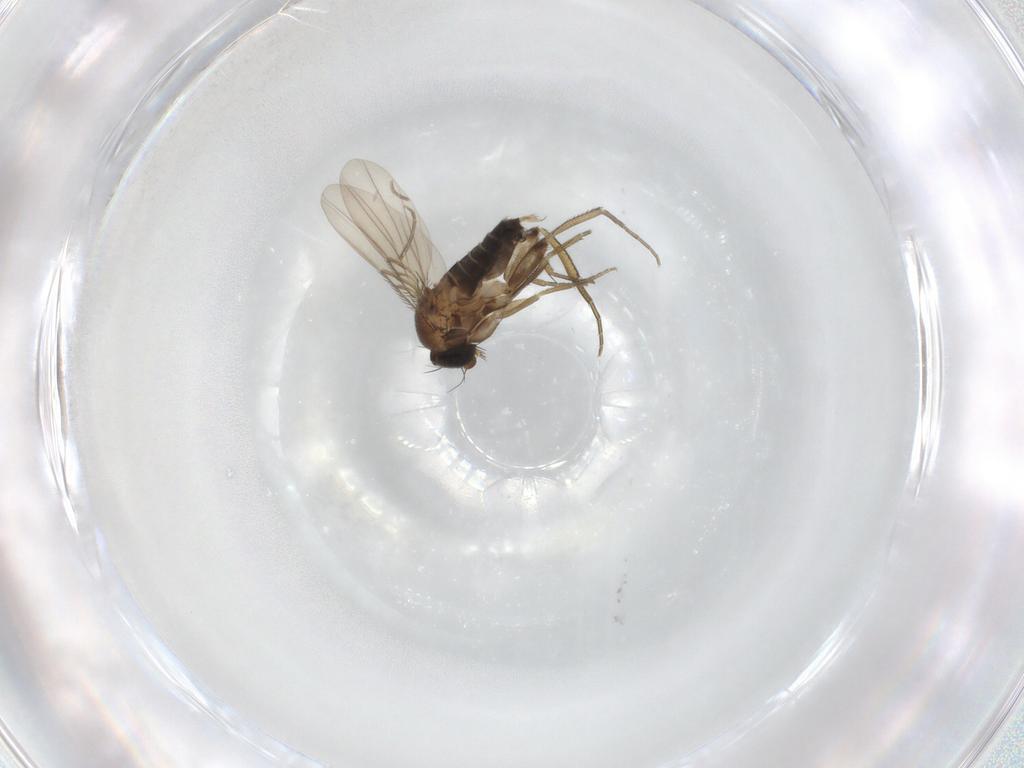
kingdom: Animalia
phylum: Arthropoda
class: Insecta
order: Diptera
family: Phoridae
